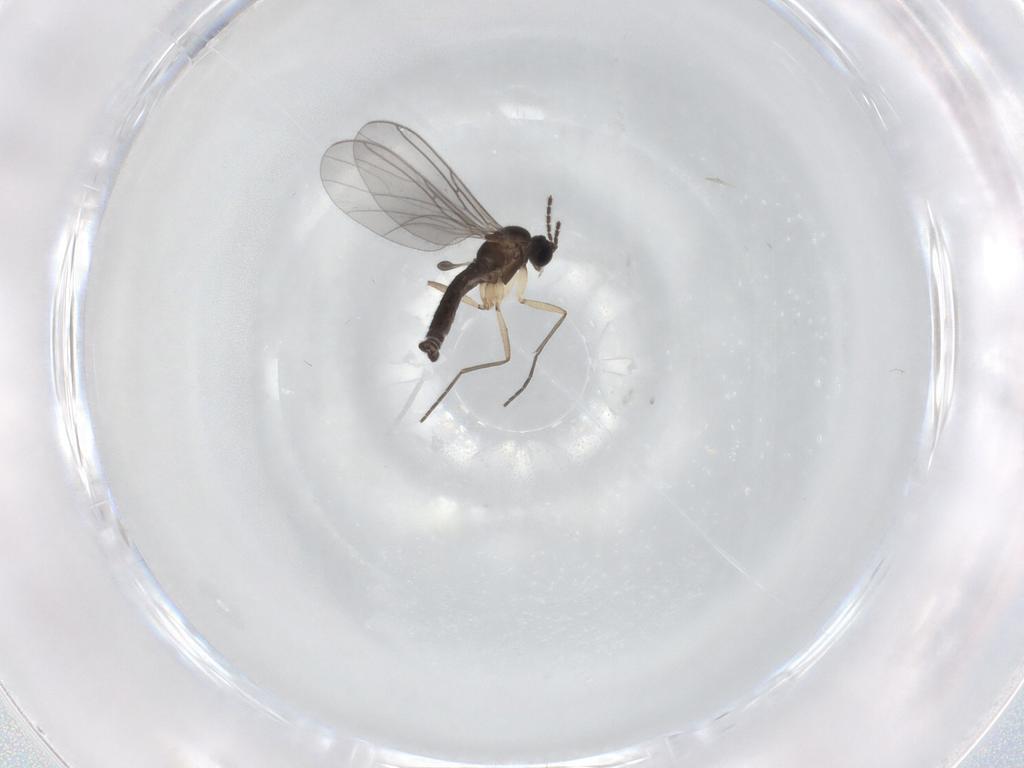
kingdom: Animalia
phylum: Arthropoda
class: Insecta
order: Diptera
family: Sciaridae
